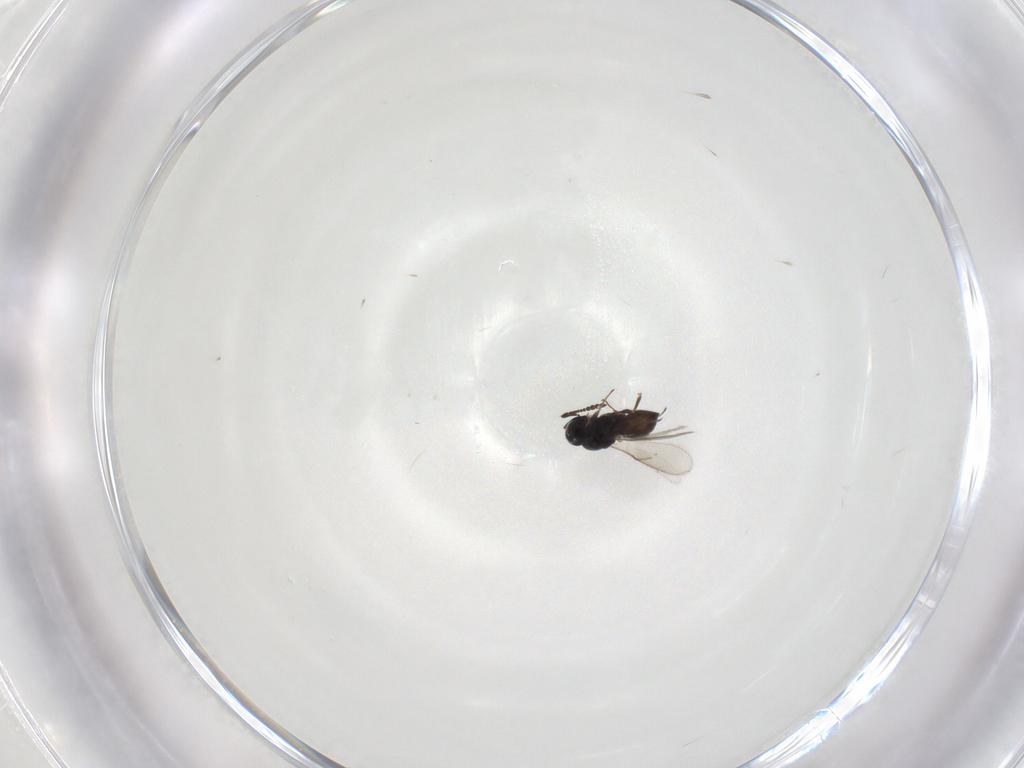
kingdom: Animalia
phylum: Arthropoda
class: Insecta
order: Hymenoptera
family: Scelionidae
